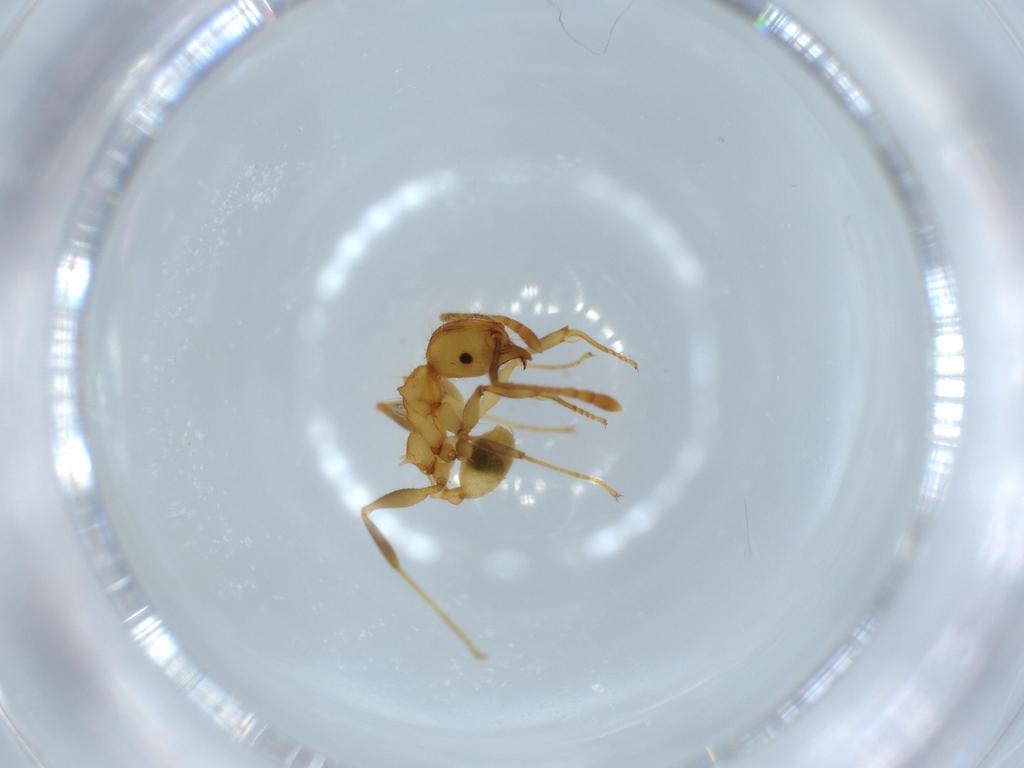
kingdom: Animalia
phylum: Arthropoda
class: Insecta
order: Hymenoptera
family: Formicidae
